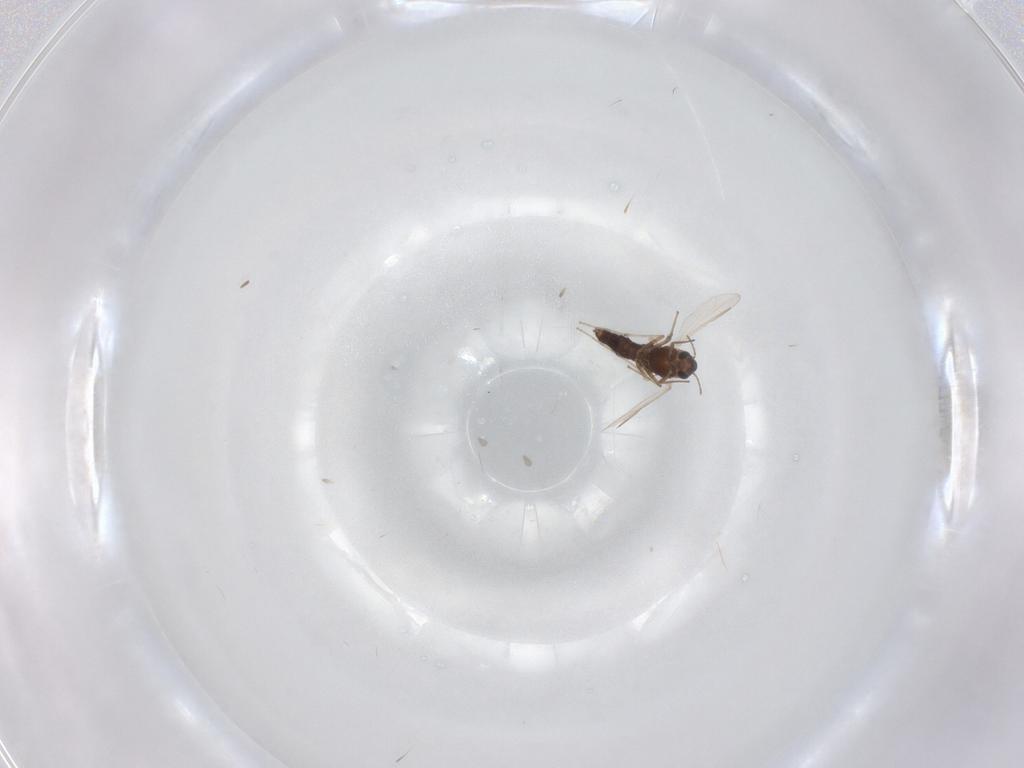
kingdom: Animalia
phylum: Arthropoda
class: Insecta
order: Diptera
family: Chironomidae
